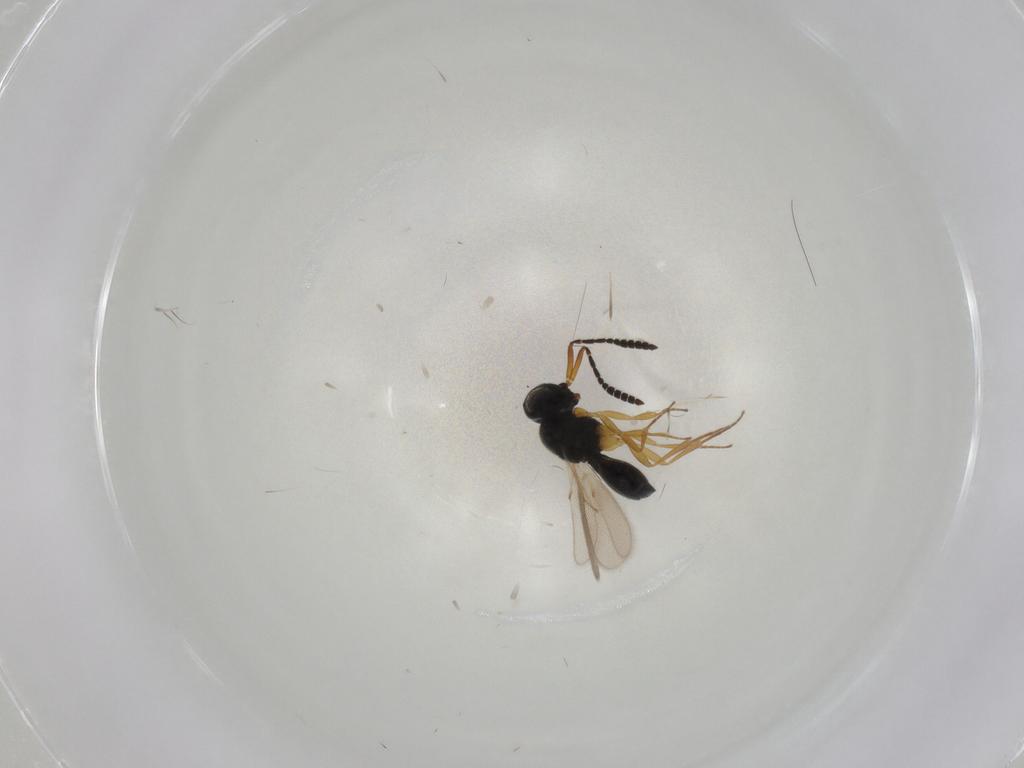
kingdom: Animalia
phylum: Arthropoda
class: Insecta
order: Hymenoptera
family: Scelionidae
